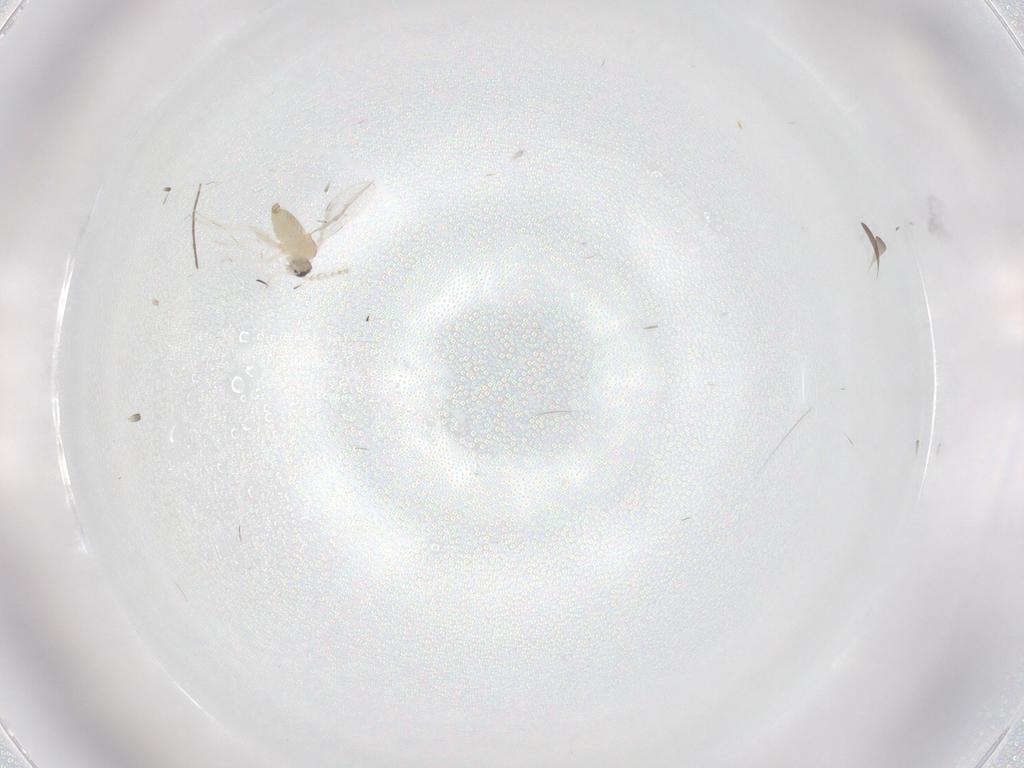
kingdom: Animalia
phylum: Arthropoda
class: Insecta
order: Diptera
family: Cecidomyiidae
